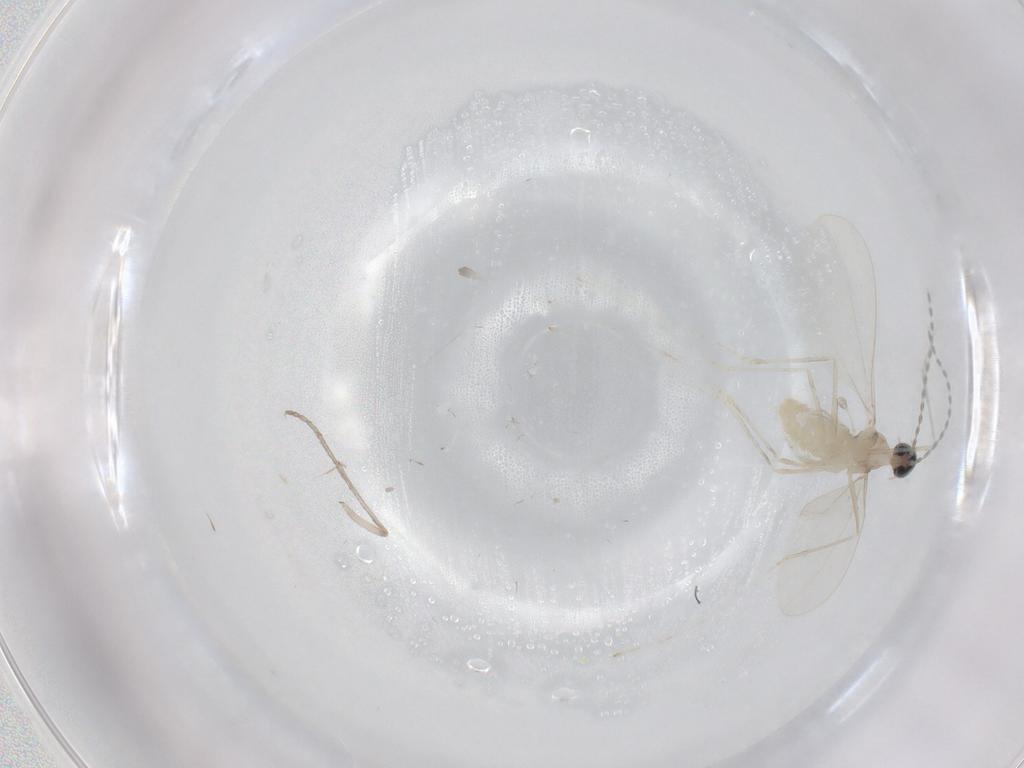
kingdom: Animalia
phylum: Arthropoda
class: Insecta
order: Diptera
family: Cecidomyiidae
